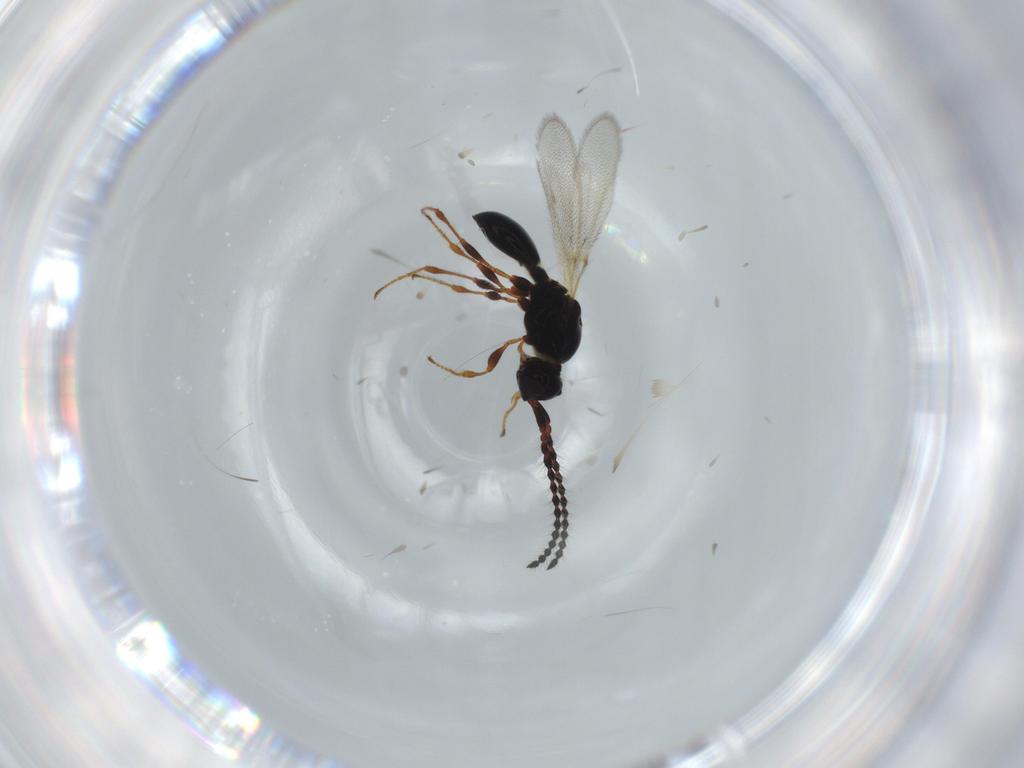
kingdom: Animalia
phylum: Arthropoda
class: Insecta
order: Hymenoptera
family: Diapriidae
